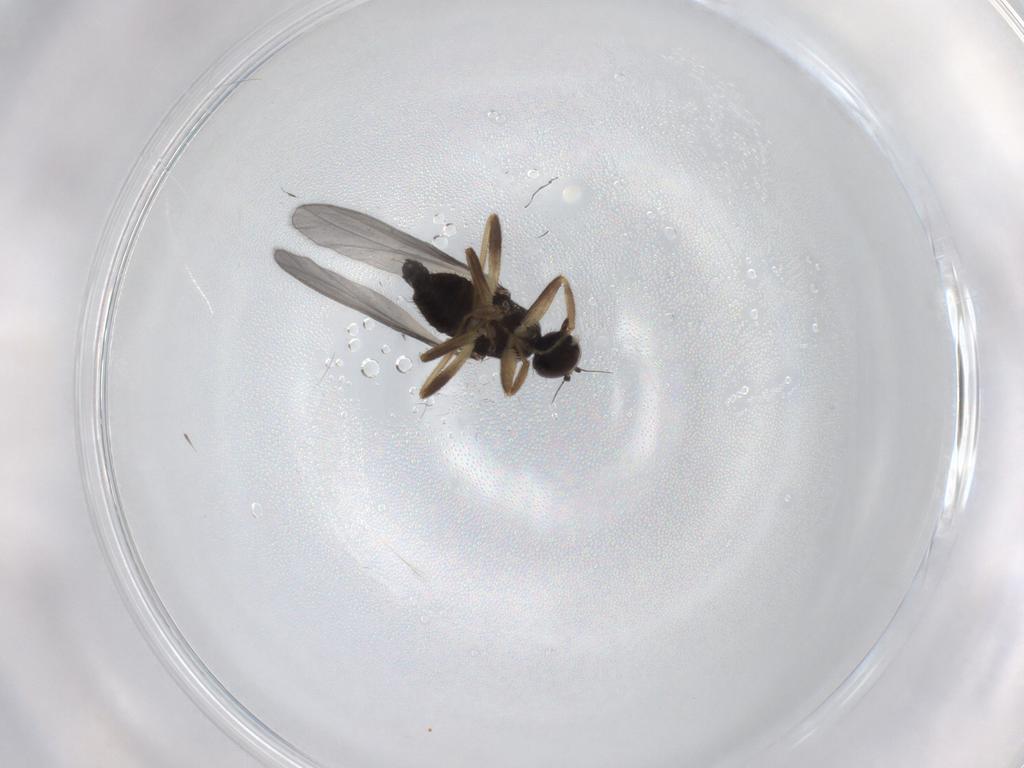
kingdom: Animalia
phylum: Arthropoda
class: Insecta
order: Diptera
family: Hybotidae
